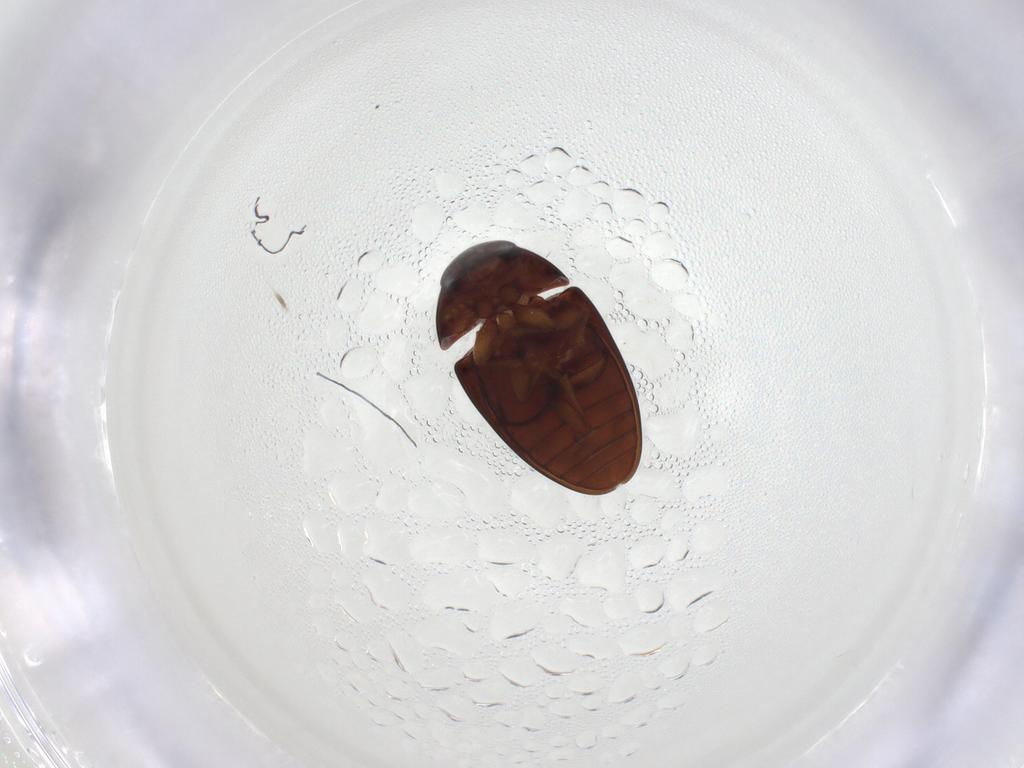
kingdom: Animalia
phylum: Arthropoda
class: Insecta
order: Coleoptera
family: Phalacridae
